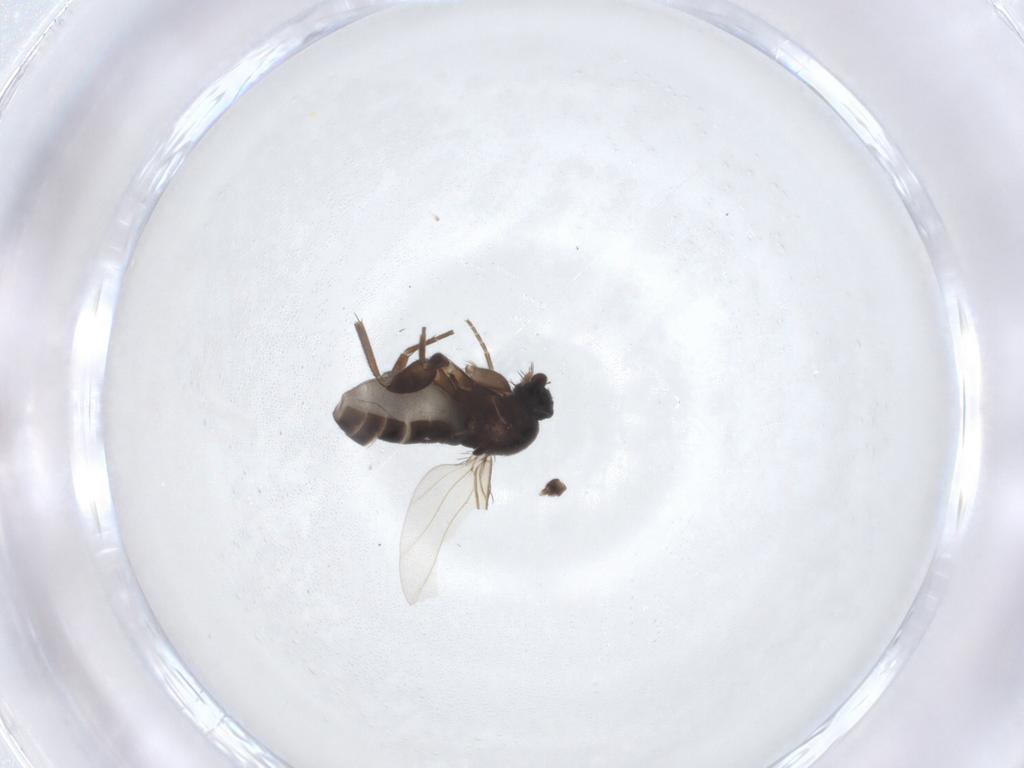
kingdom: Animalia
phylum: Arthropoda
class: Insecta
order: Diptera
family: Phoridae
